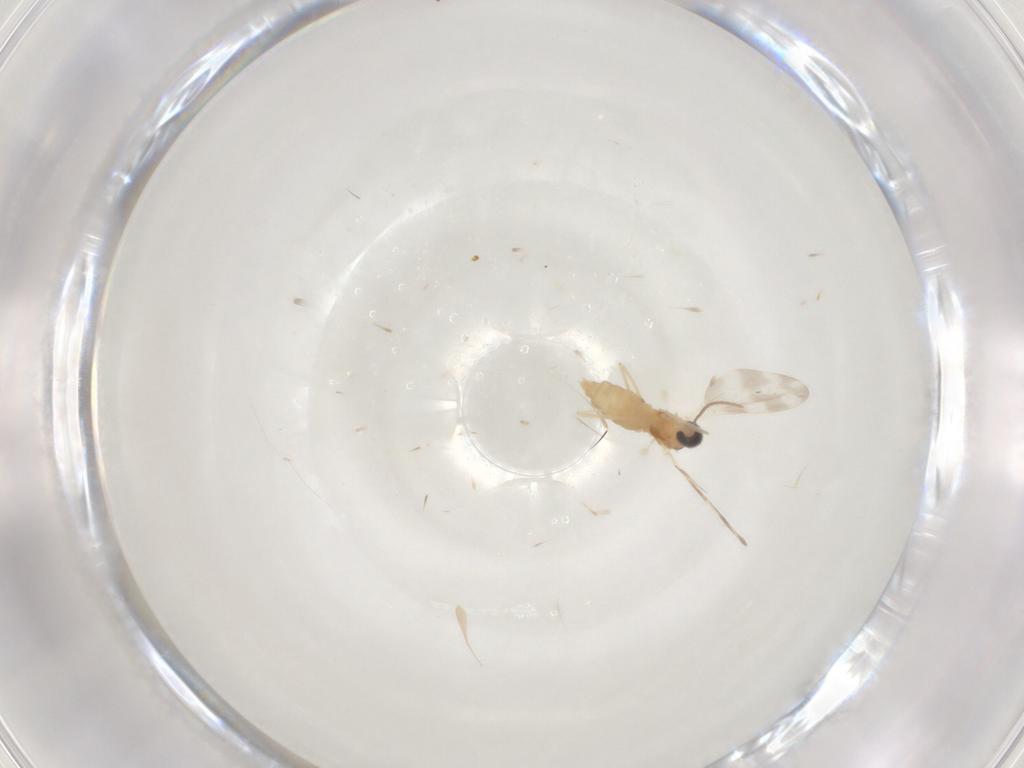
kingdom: Animalia
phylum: Arthropoda
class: Insecta
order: Diptera
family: Cecidomyiidae
